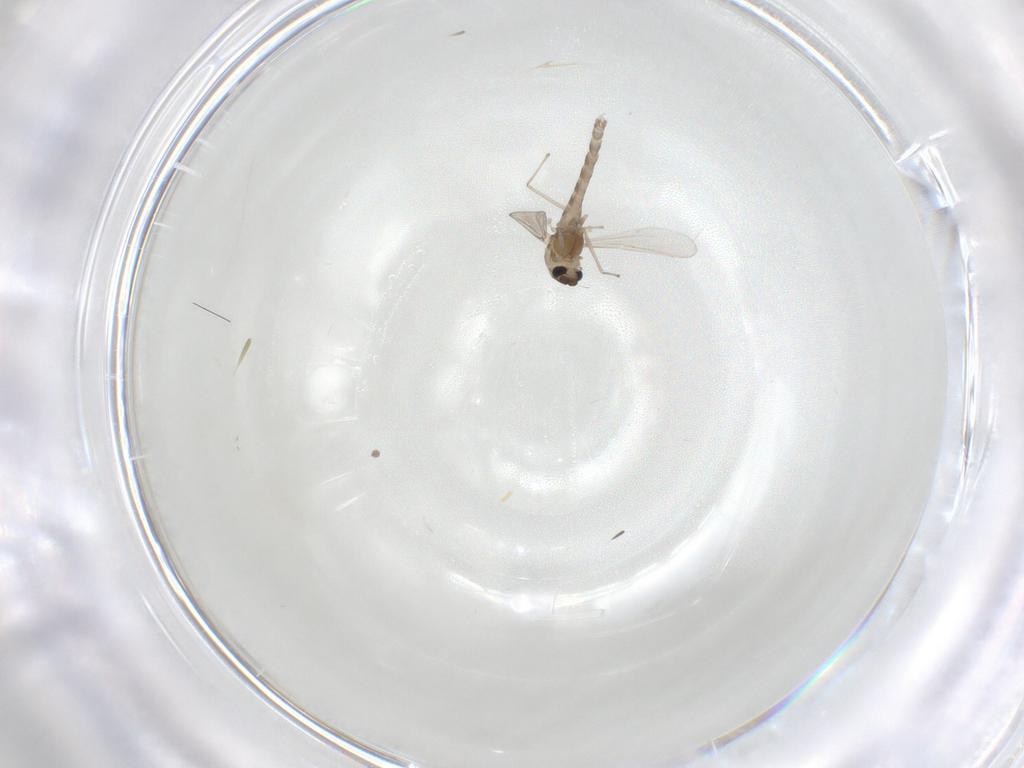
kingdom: Animalia
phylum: Arthropoda
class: Insecta
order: Diptera
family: Chironomidae
